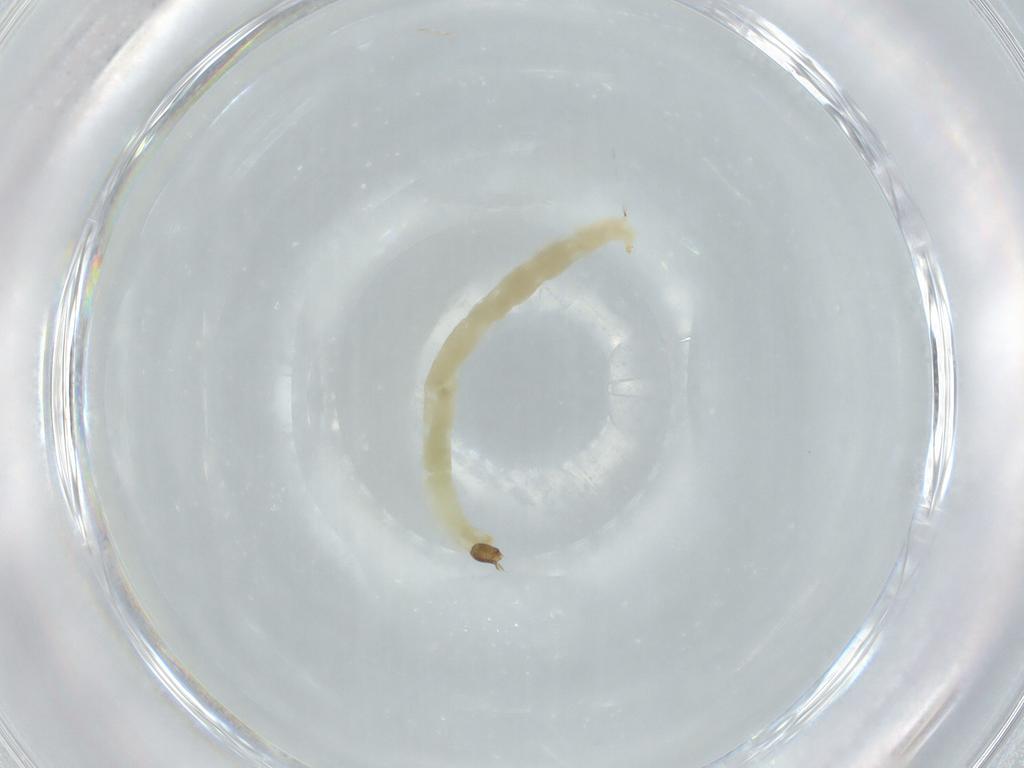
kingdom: Animalia
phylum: Arthropoda
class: Insecta
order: Diptera
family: Chironomidae
